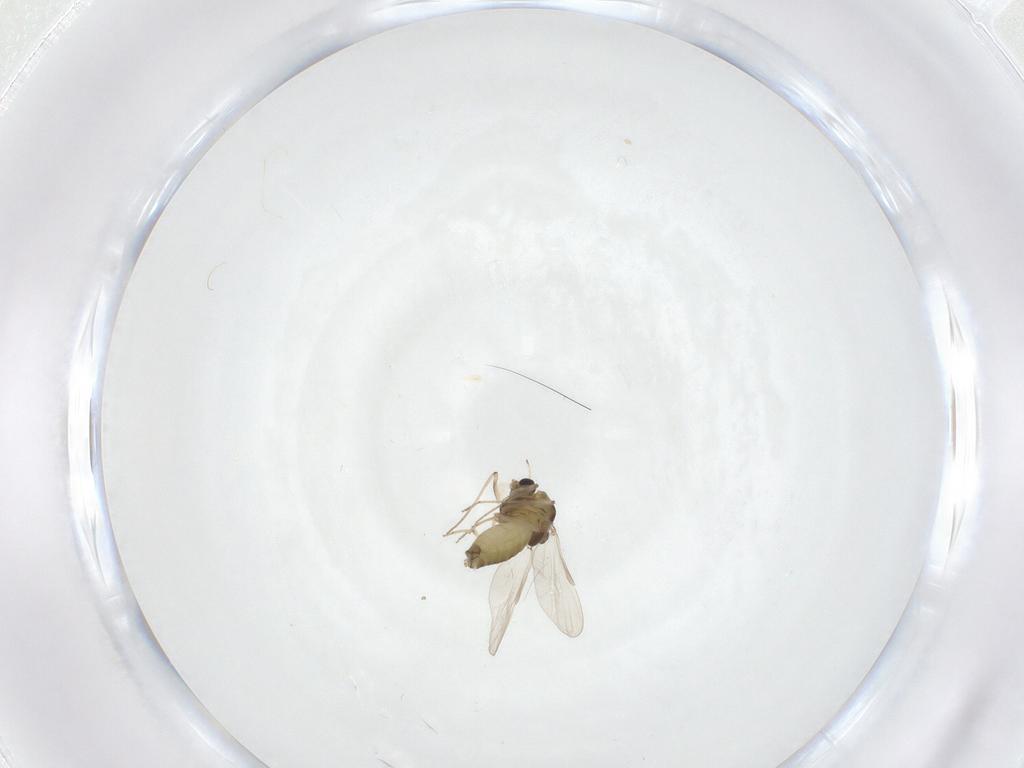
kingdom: Animalia
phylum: Arthropoda
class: Insecta
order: Diptera
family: Chironomidae
